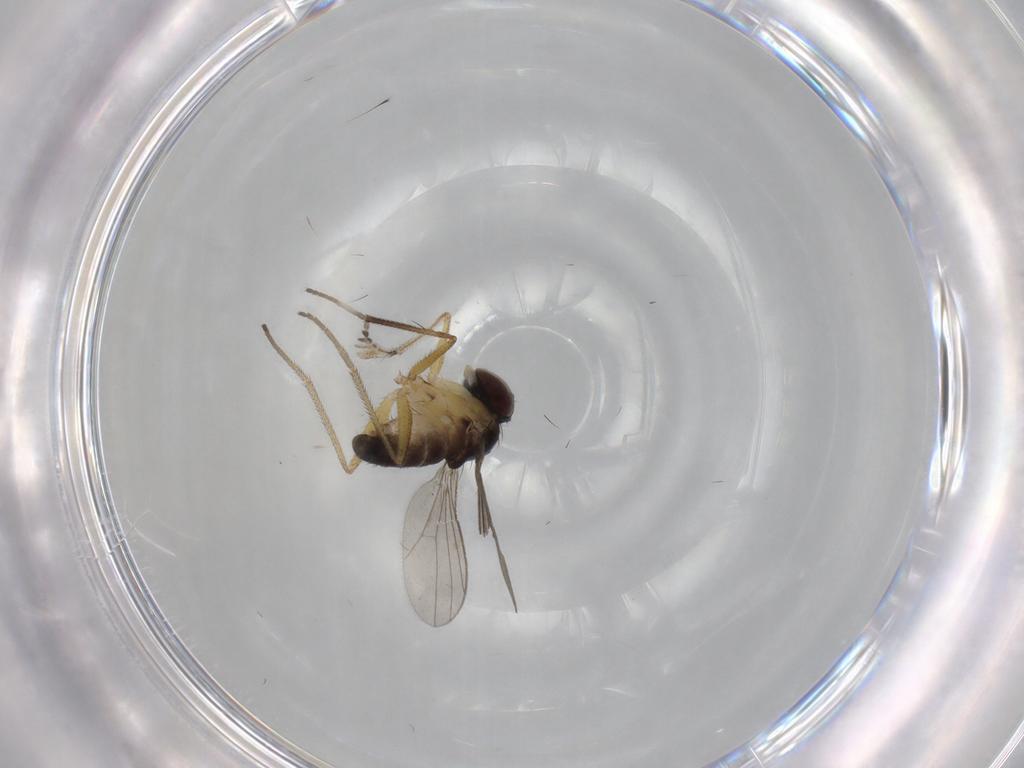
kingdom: Animalia
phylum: Arthropoda
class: Insecta
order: Diptera
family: Dolichopodidae
